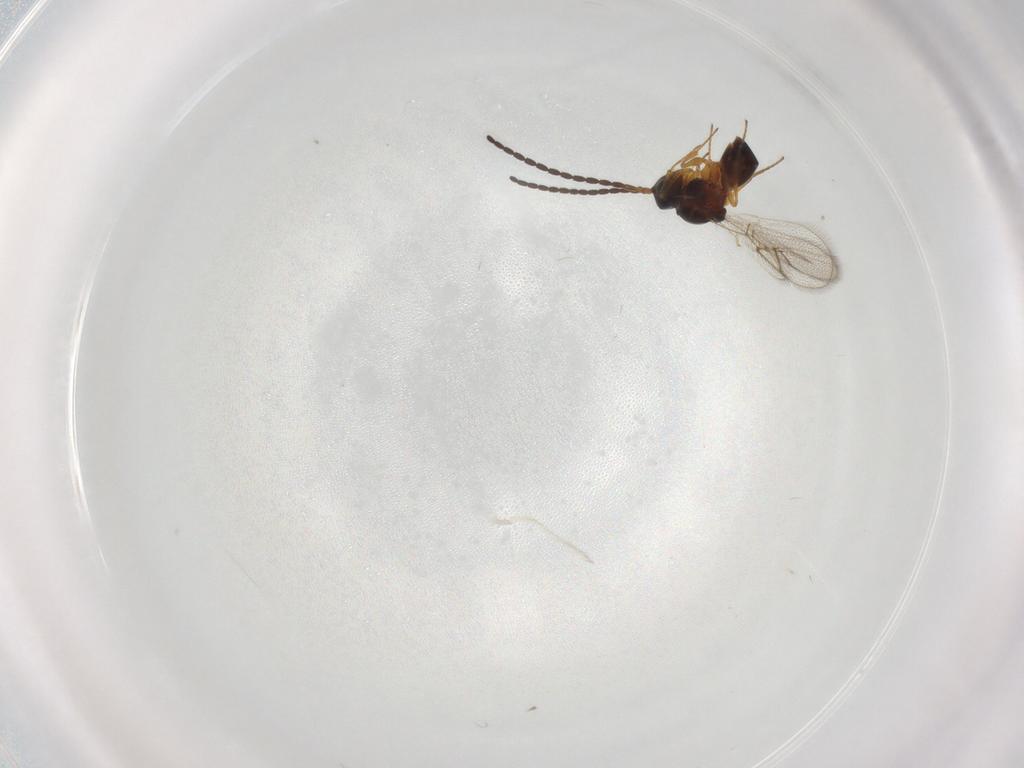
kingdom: Animalia
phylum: Arthropoda
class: Insecta
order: Hymenoptera
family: Figitidae
